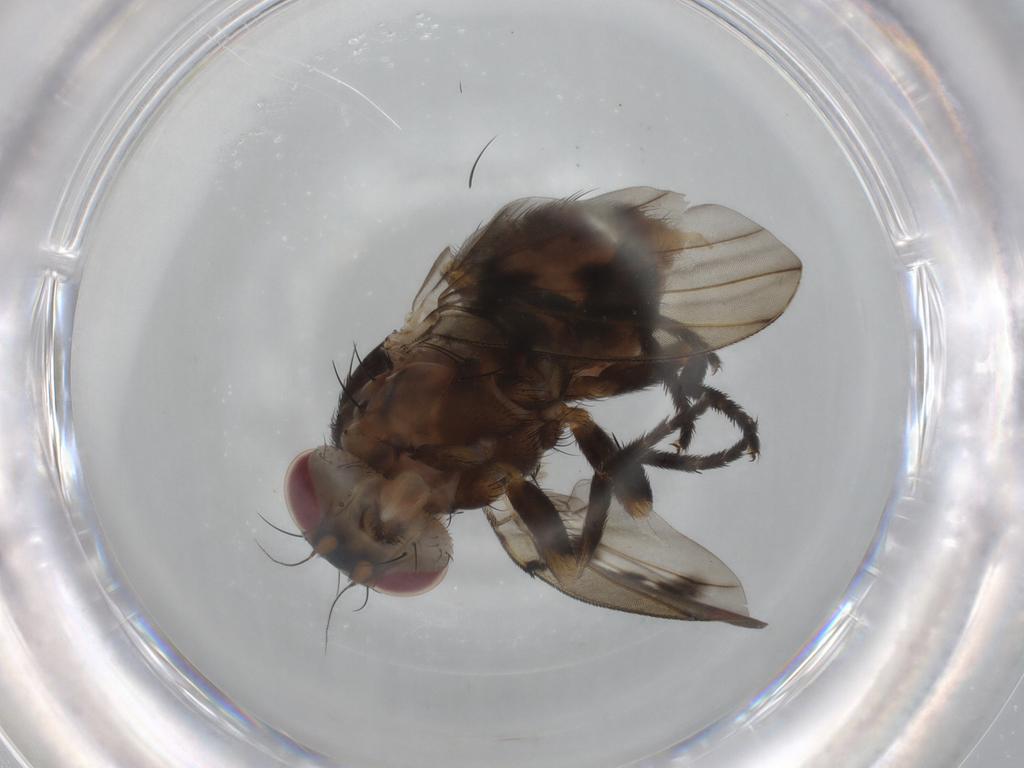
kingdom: Animalia
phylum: Arthropoda
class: Insecta
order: Diptera
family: Odiniidae
